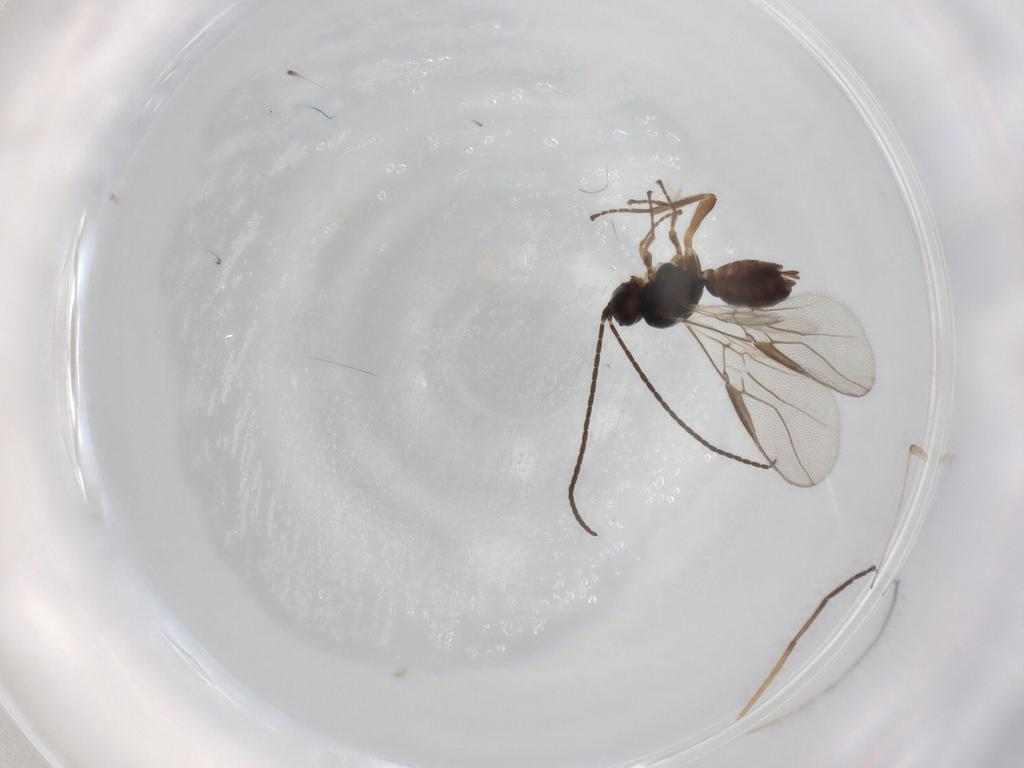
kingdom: Animalia
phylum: Arthropoda
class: Insecta
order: Hymenoptera
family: Braconidae
